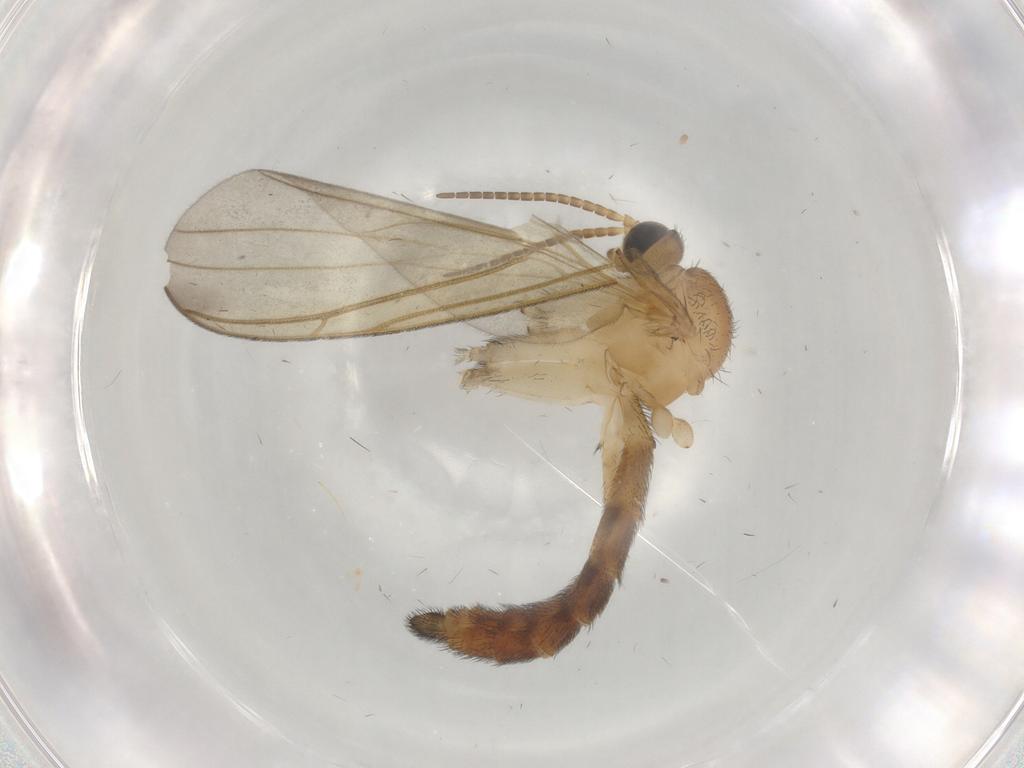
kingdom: Animalia
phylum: Arthropoda
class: Insecta
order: Diptera
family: Keroplatidae
